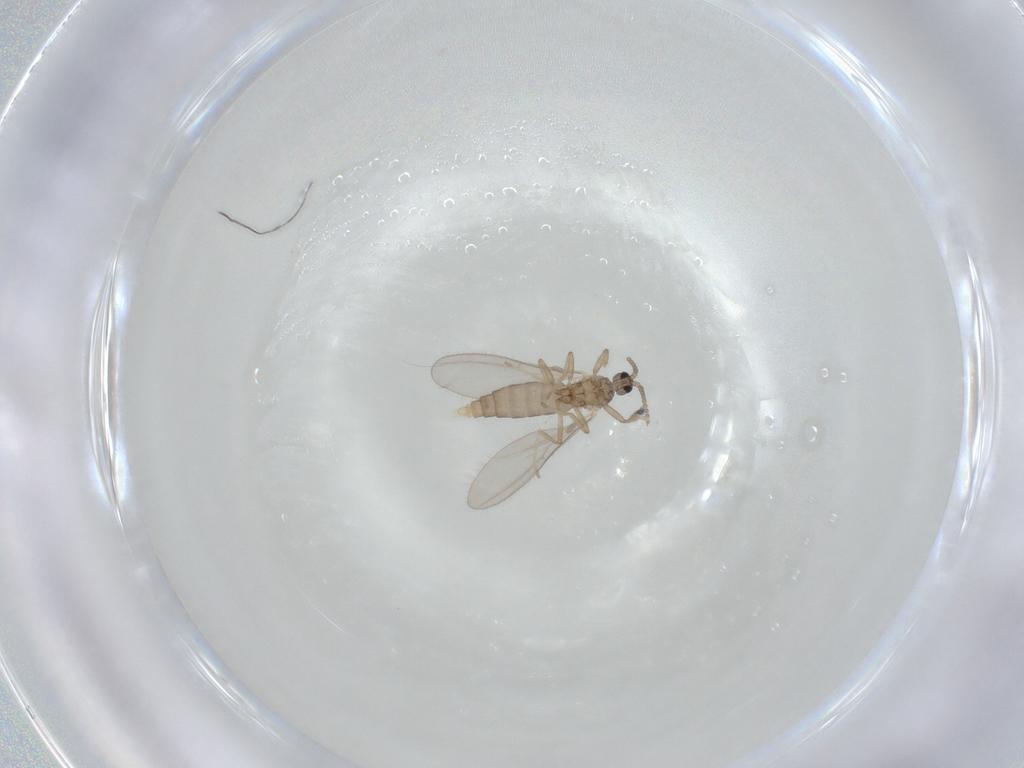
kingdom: Animalia
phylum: Arthropoda
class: Insecta
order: Diptera
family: Cecidomyiidae
